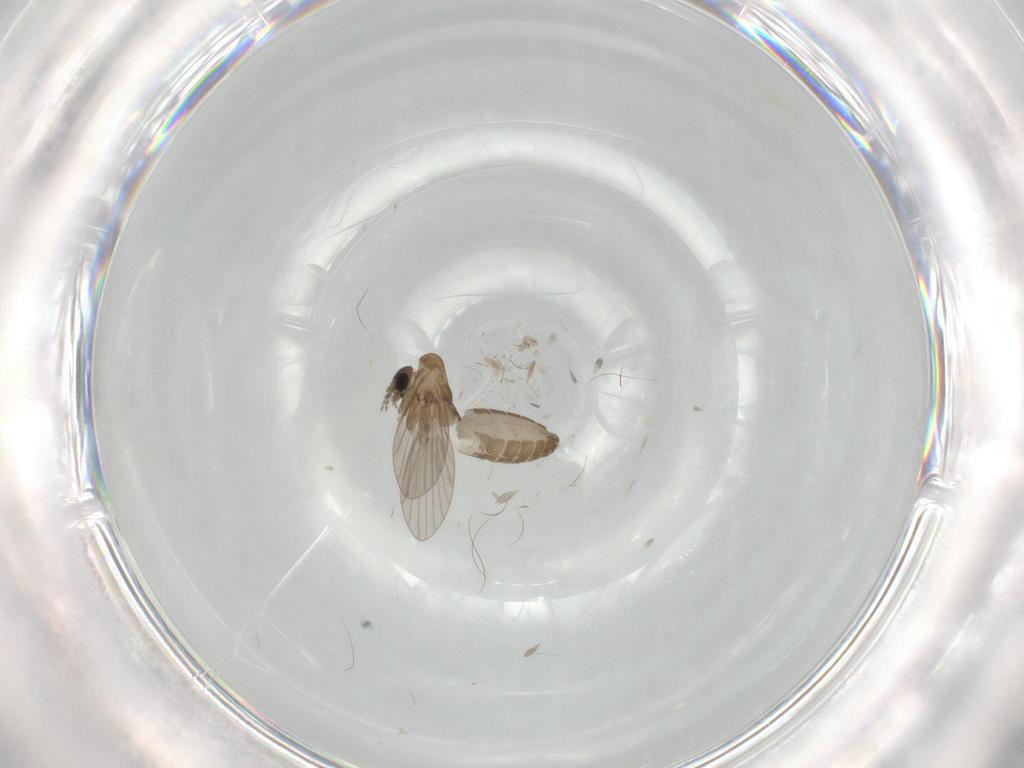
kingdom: Animalia
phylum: Arthropoda
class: Insecta
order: Diptera
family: Psychodidae
